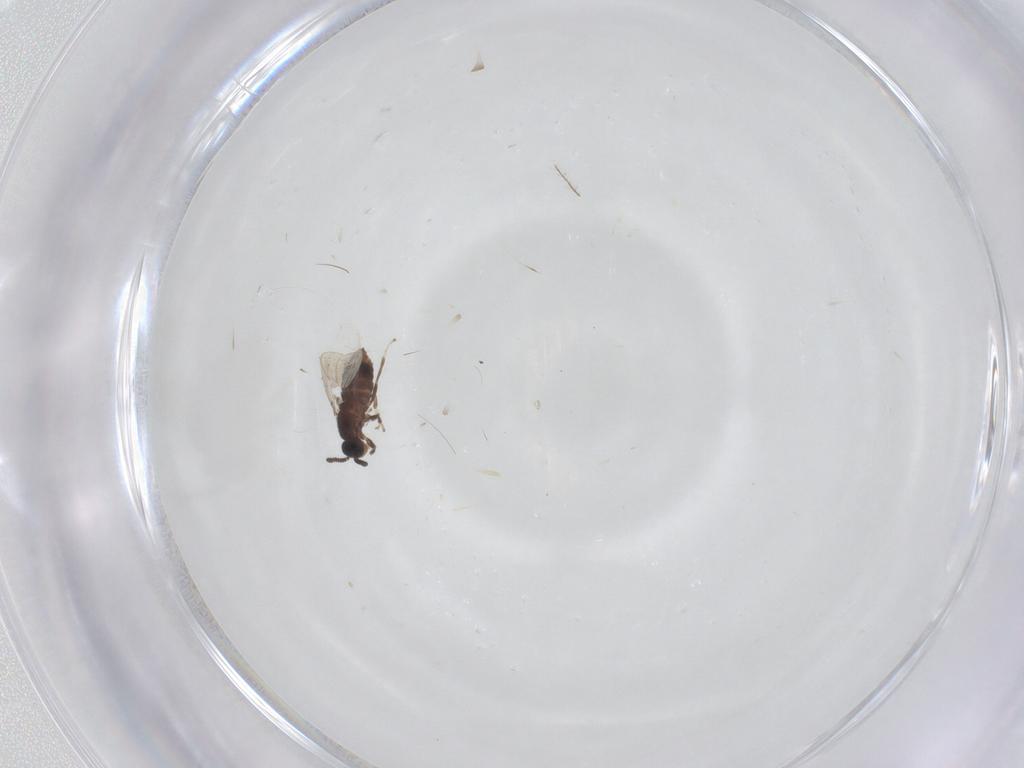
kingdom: Animalia
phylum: Arthropoda
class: Insecta
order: Diptera
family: Scatopsidae
